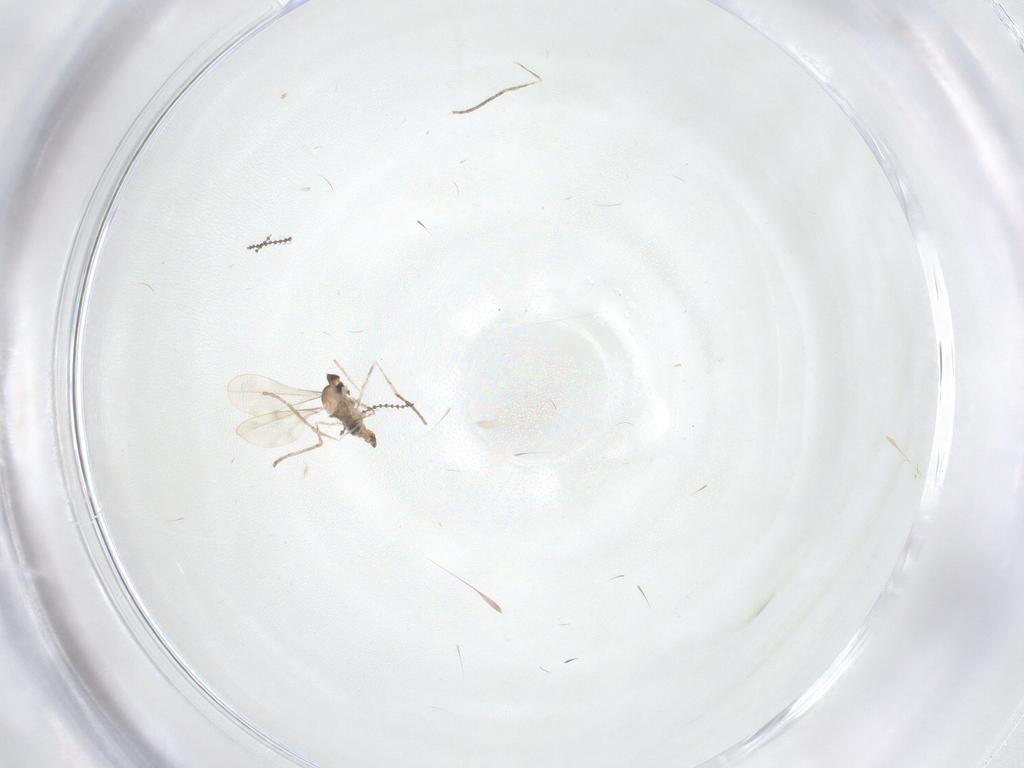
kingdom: Animalia
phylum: Arthropoda
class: Insecta
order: Diptera
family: Cecidomyiidae
